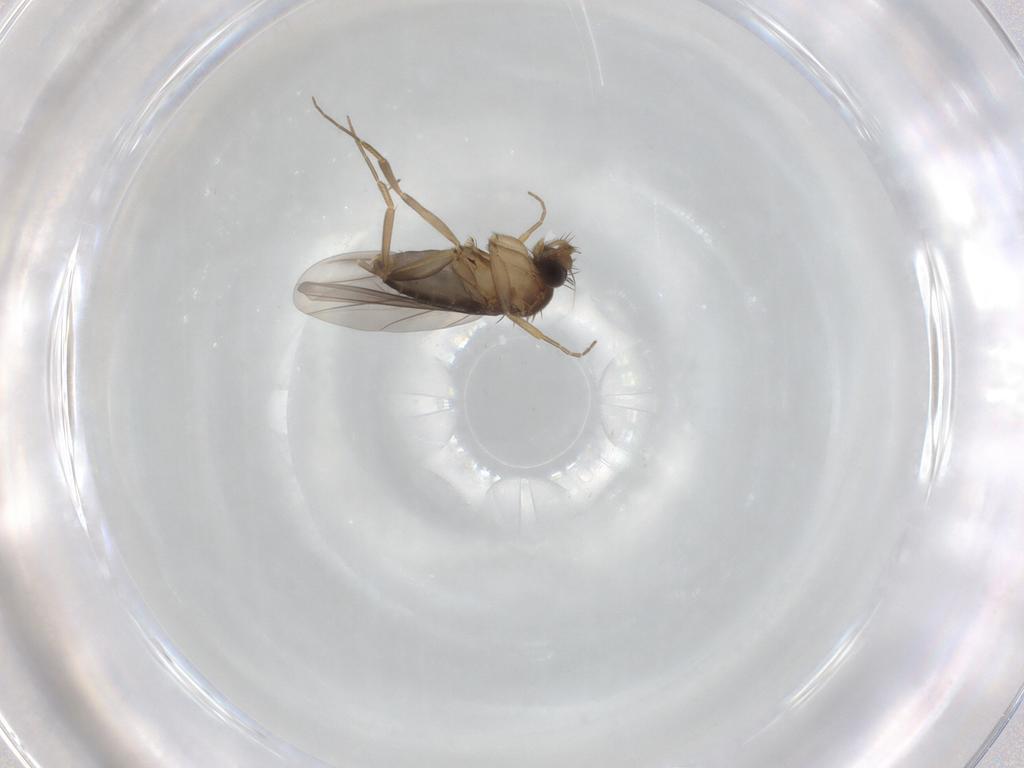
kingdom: Animalia
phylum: Arthropoda
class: Insecta
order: Diptera
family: Phoridae
